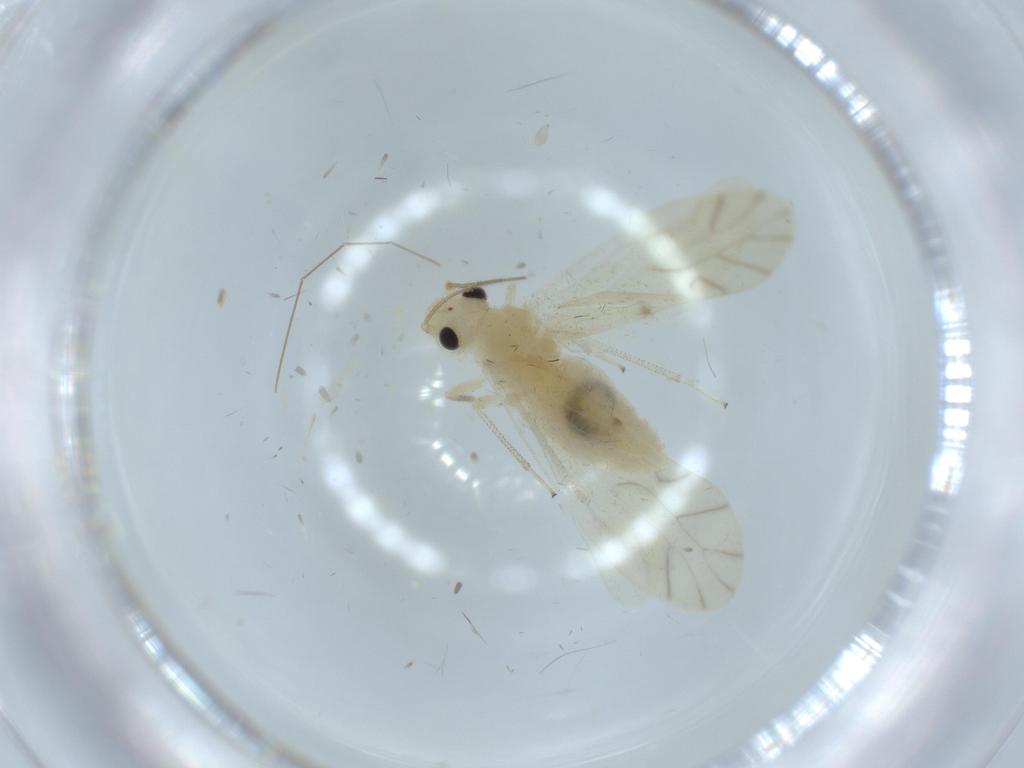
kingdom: Animalia
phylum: Arthropoda
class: Insecta
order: Psocodea
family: Caeciliusidae
